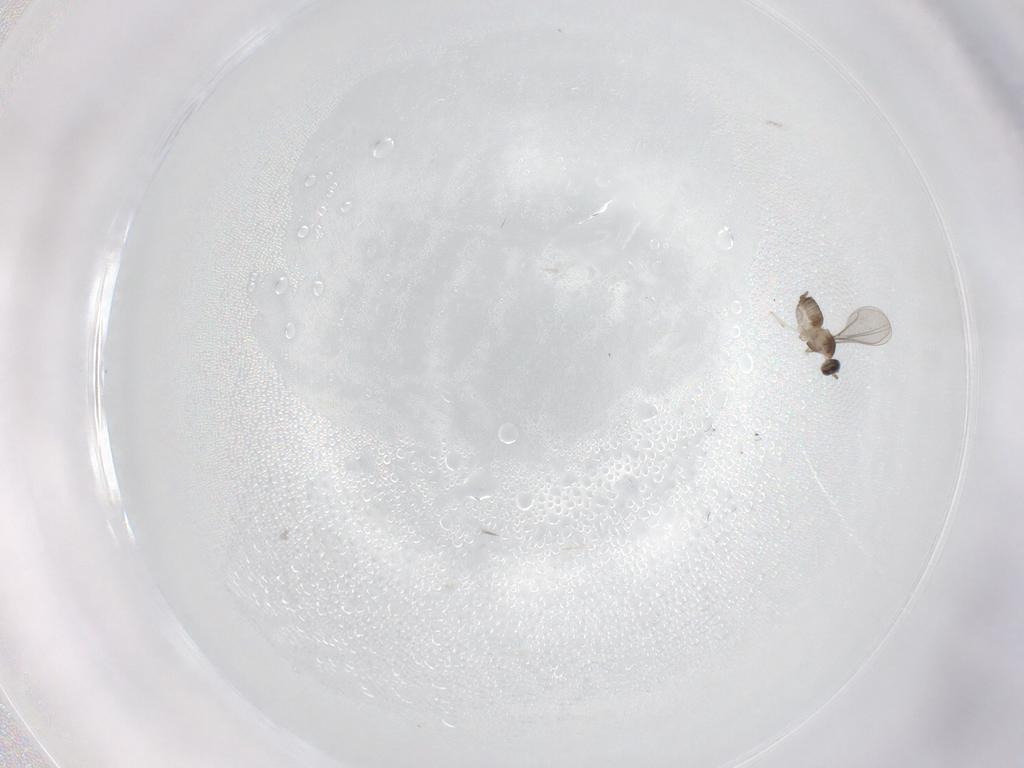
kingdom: Animalia
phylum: Arthropoda
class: Insecta
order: Diptera
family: Cecidomyiidae
